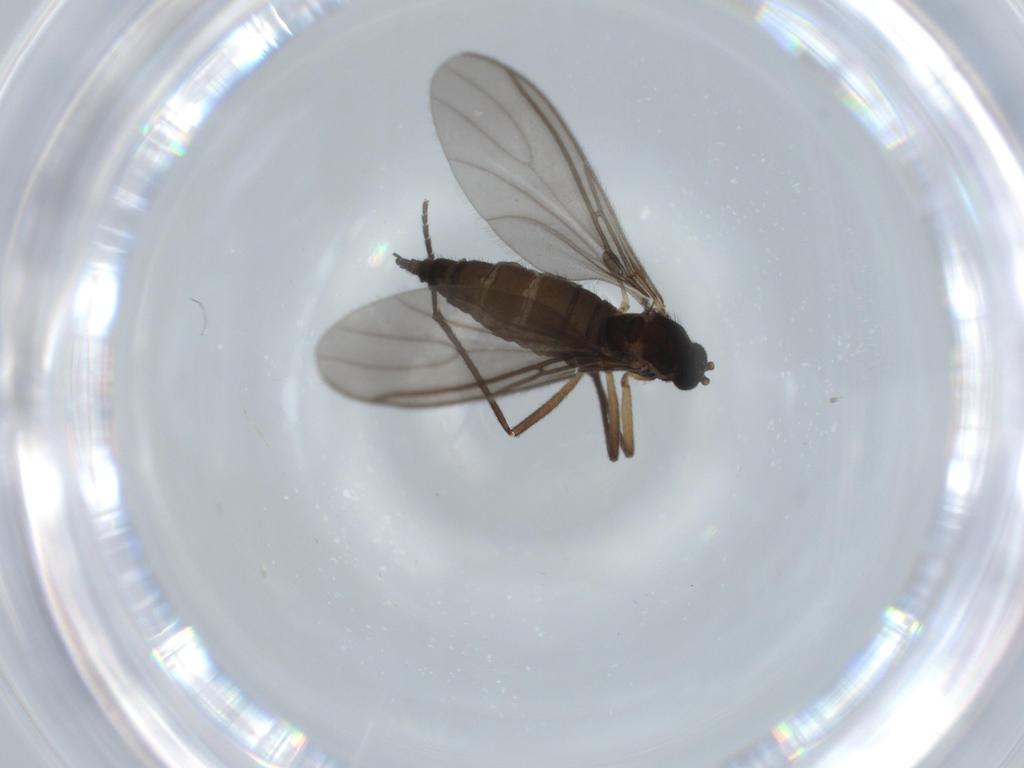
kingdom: Animalia
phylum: Arthropoda
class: Insecta
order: Diptera
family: Sciaridae
